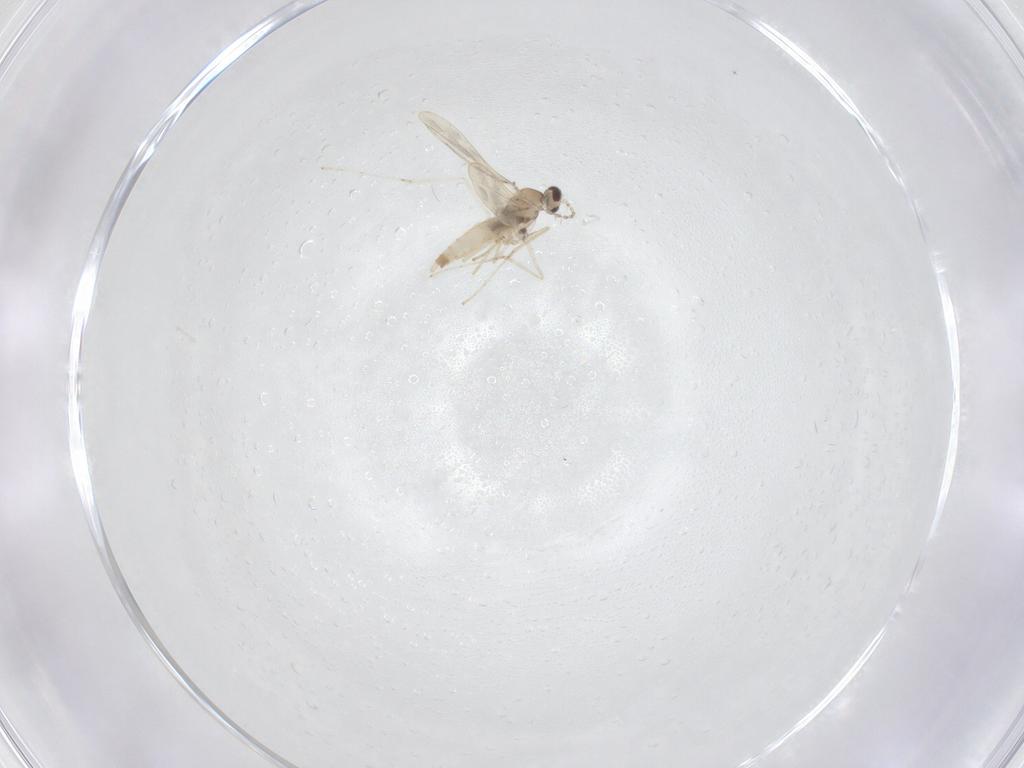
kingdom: Animalia
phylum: Arthropoda
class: Insecta
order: Diptera
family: Cecidomyiidae
